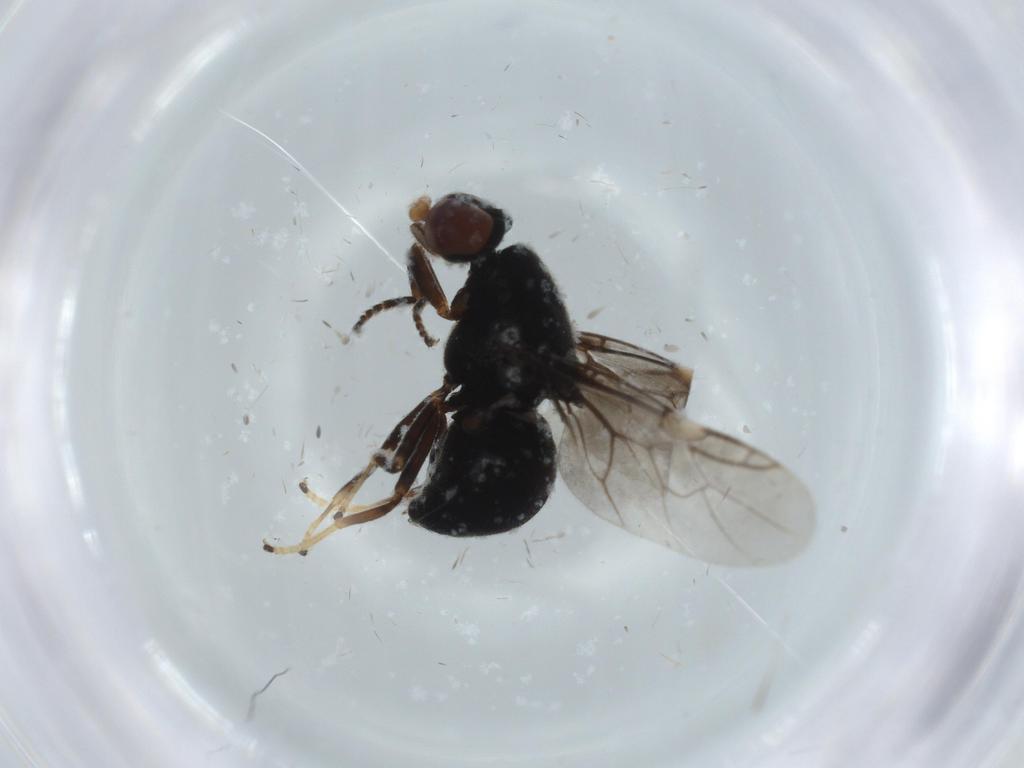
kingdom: Animalia
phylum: Arthropoda
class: Insecta
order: Diptera
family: Stratiomyidae
